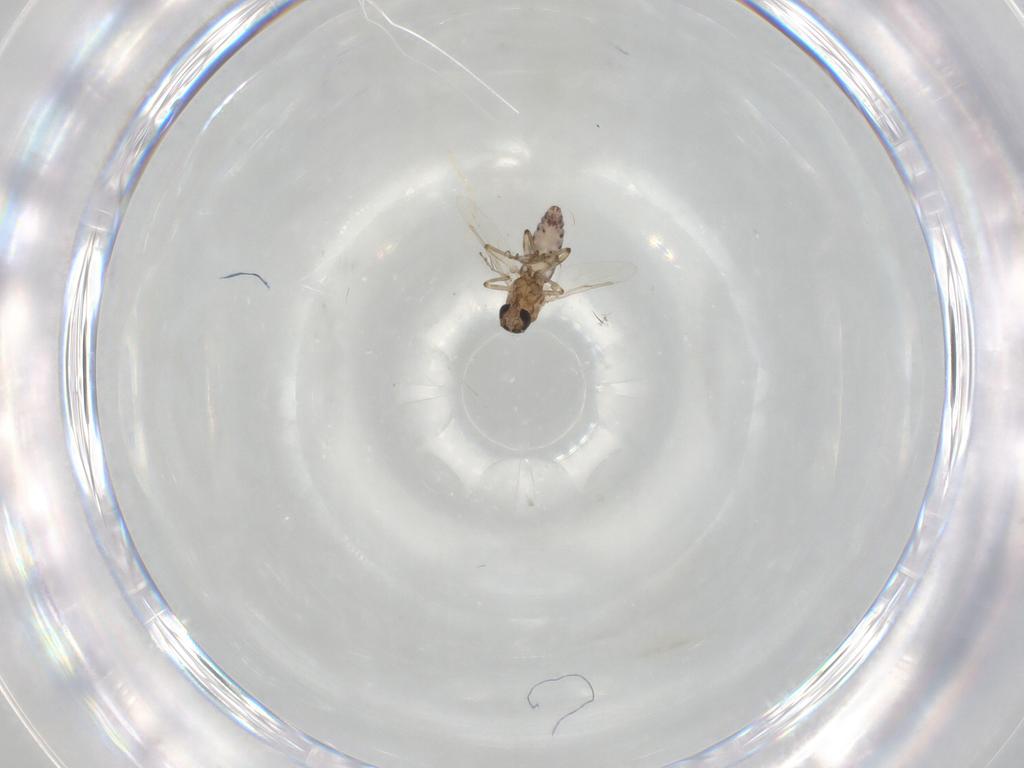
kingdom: Animalia
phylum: Arthropoda
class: Insecta
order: Diptera
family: Ceratopogonidae
